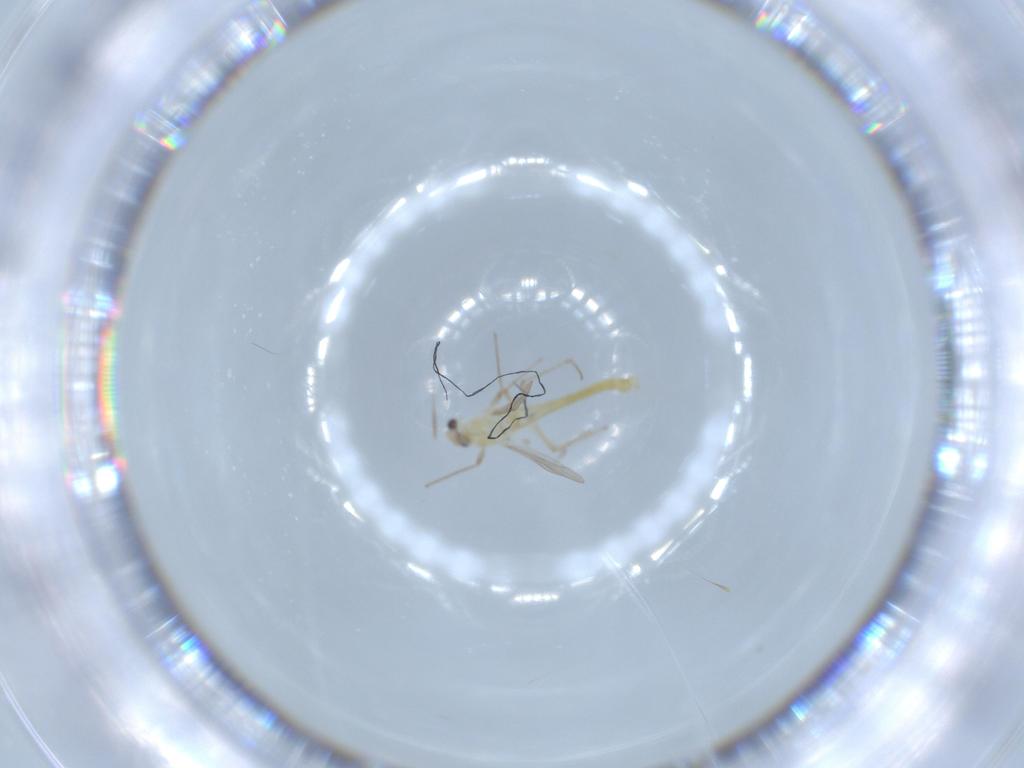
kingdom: Animalia
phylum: Arthropoda
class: Insecta
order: Diptera
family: Chironomidae
